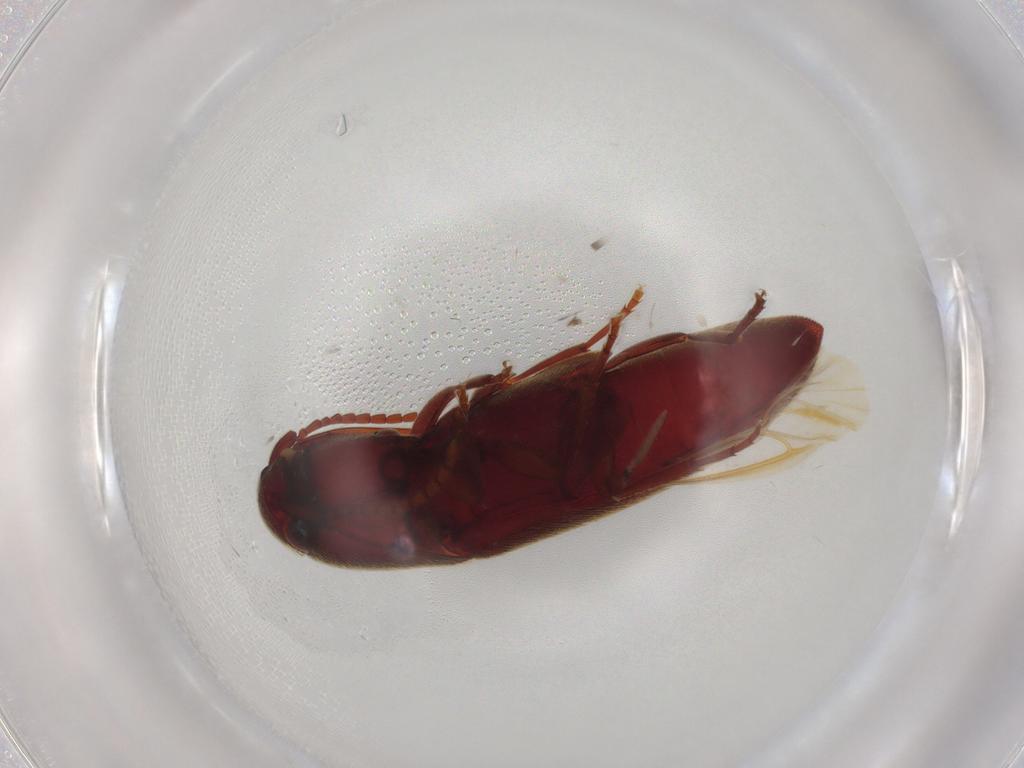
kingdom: Animalia
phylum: Arthropoda
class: Insecta
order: Coleoptera
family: Eucnemidae
